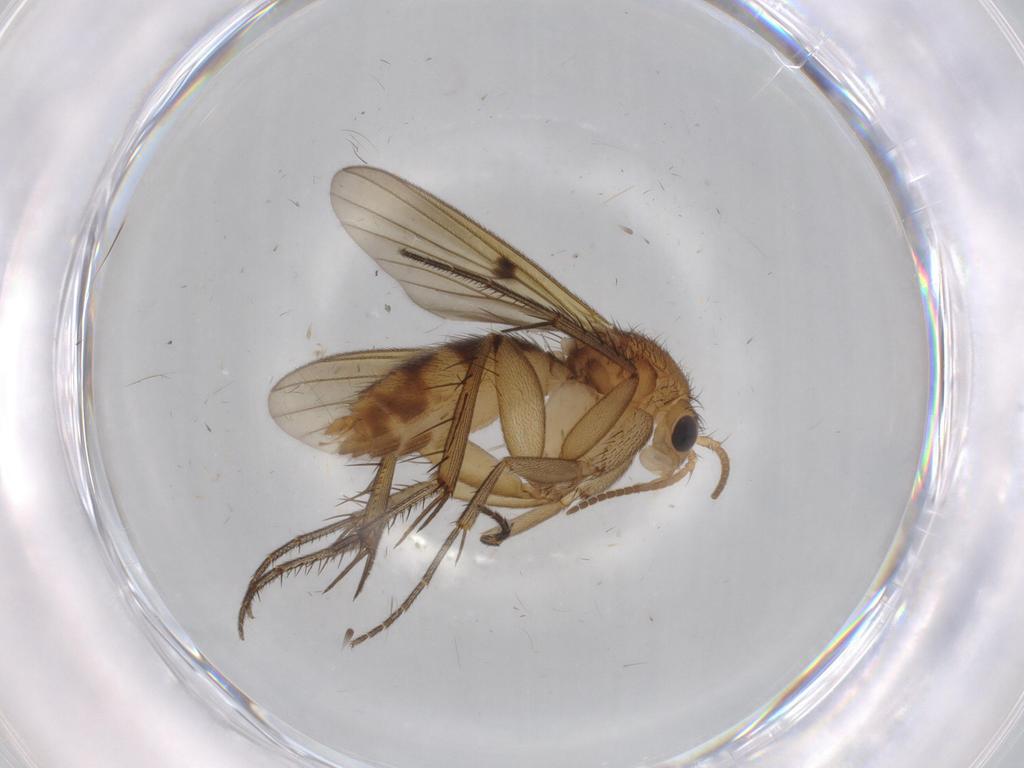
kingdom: Animalia
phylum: Arthropoda
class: Insecta
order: Diptera
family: Mycetophilidae
